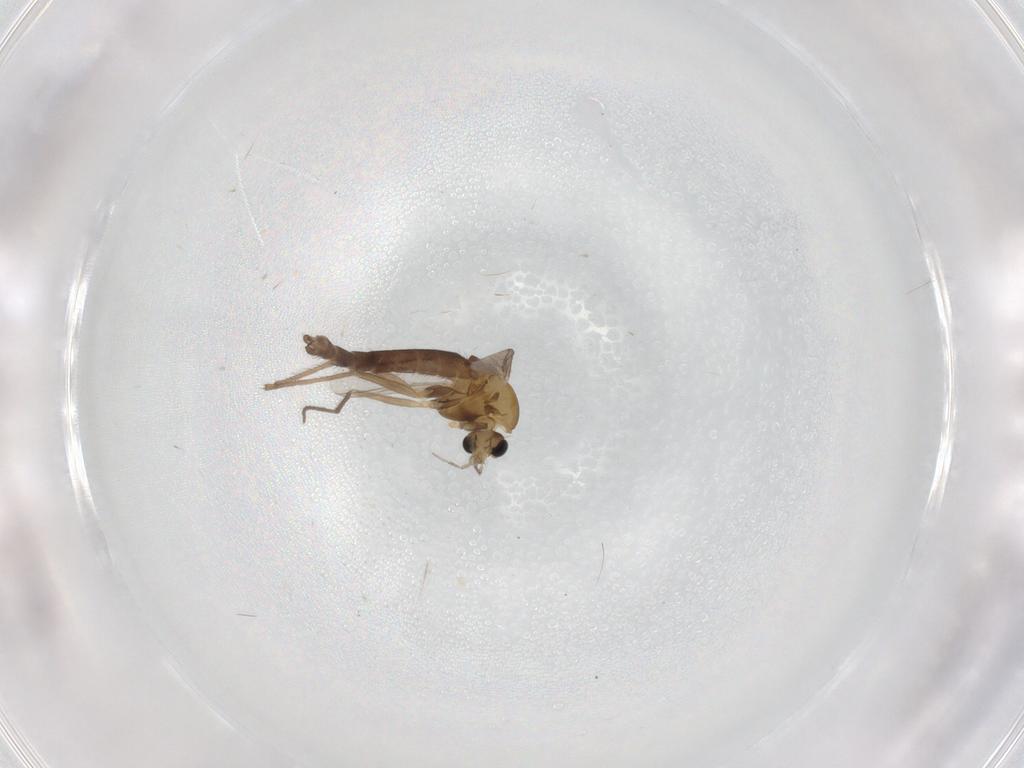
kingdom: Animalia
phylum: Arthropoda
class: Insecta
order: Diptera
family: Chironomidae
